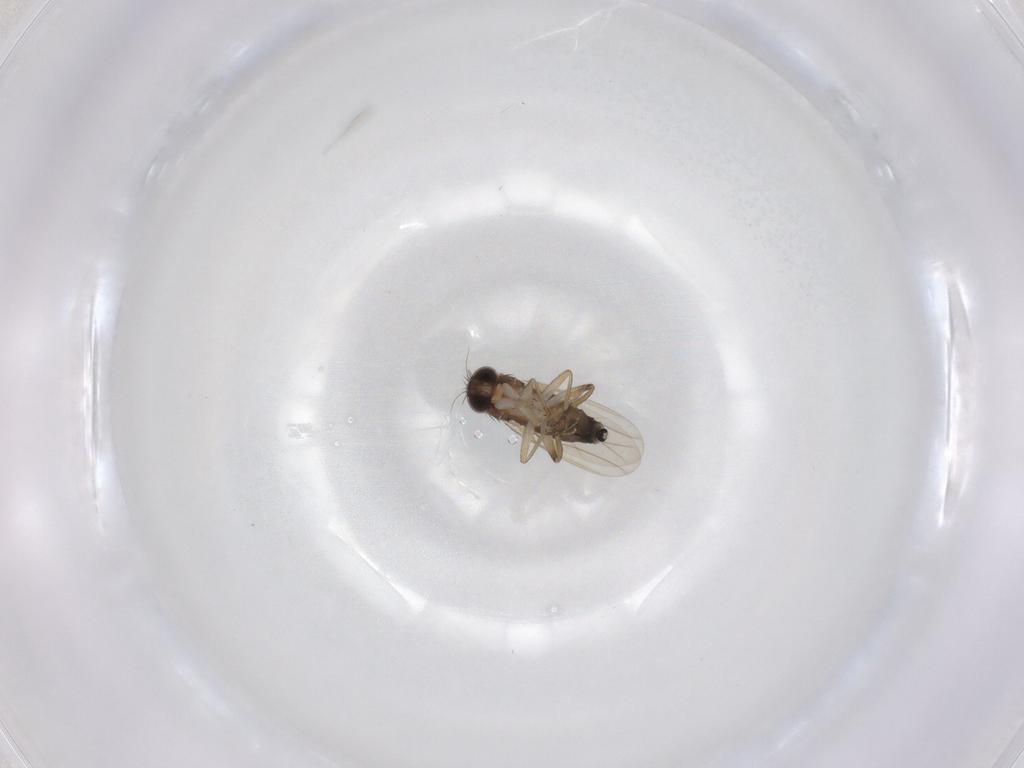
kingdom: Animalia
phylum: Arthropoda
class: Insecta
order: Diptera
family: Phoridae
